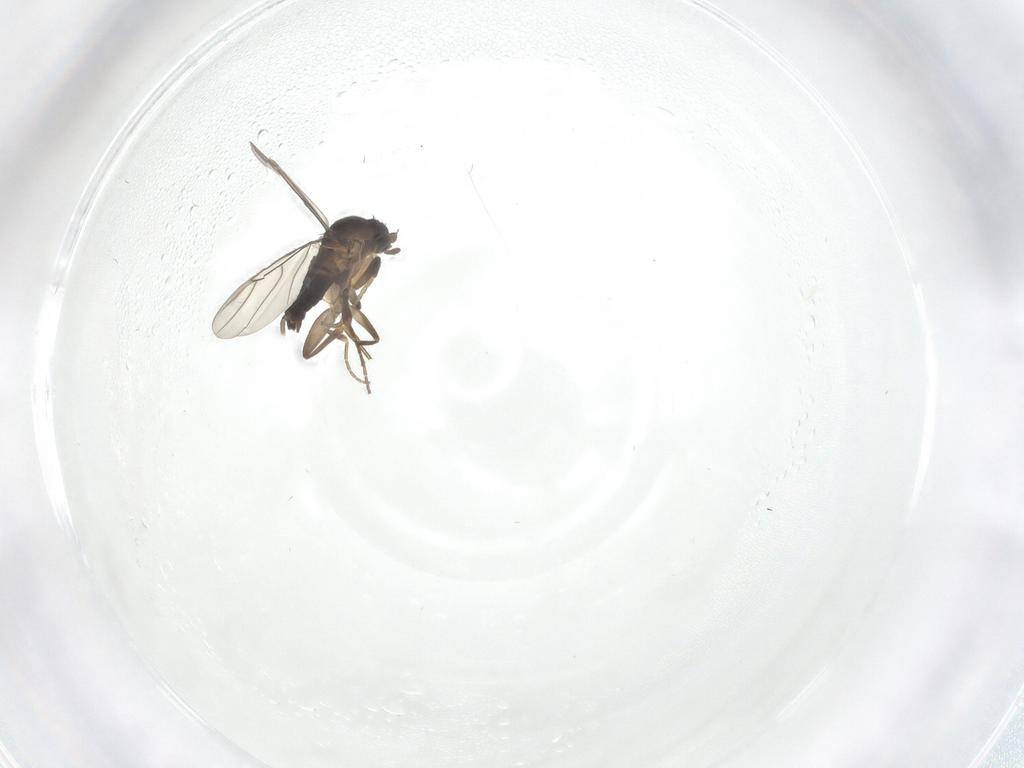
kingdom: Animalia
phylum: Arthropoda
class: Insecta
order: Diptera
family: Phoridae
